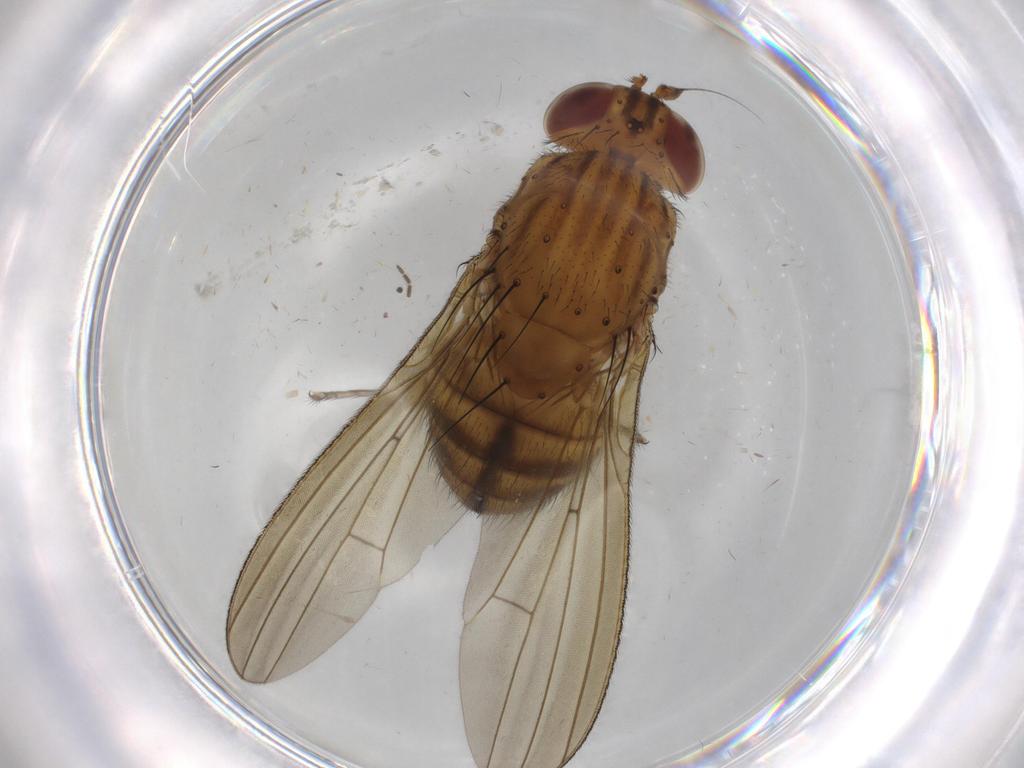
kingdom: Animalia
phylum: Arthropoda
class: Insecta
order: Diptera
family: Sciaridae
